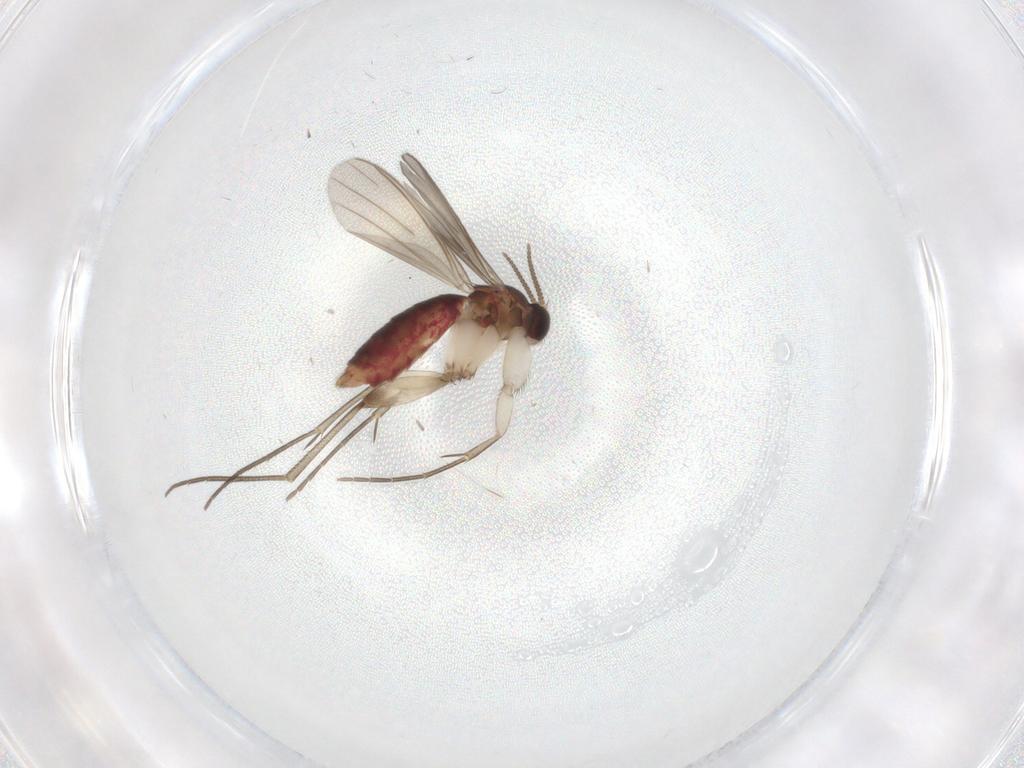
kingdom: Animalia
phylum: Arthropoda
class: Insecta
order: Diptera
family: Mycetophilidae
